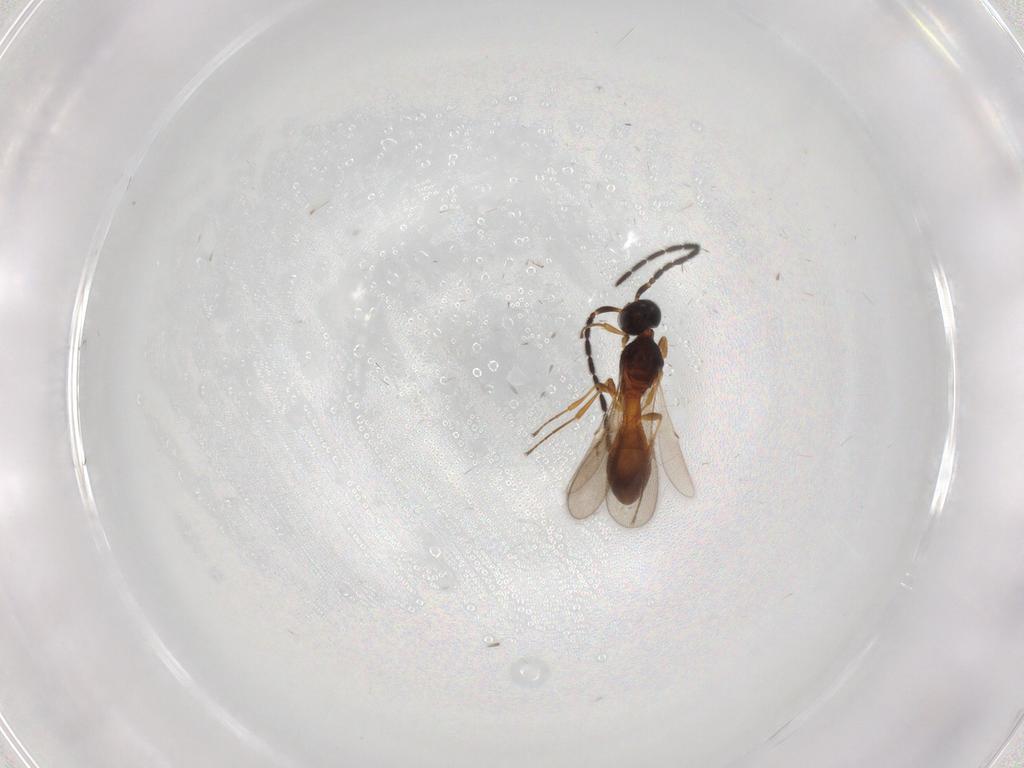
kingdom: Animalia
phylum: Arthropoda
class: Insecta
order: Hymenoptera
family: Scelionidae
